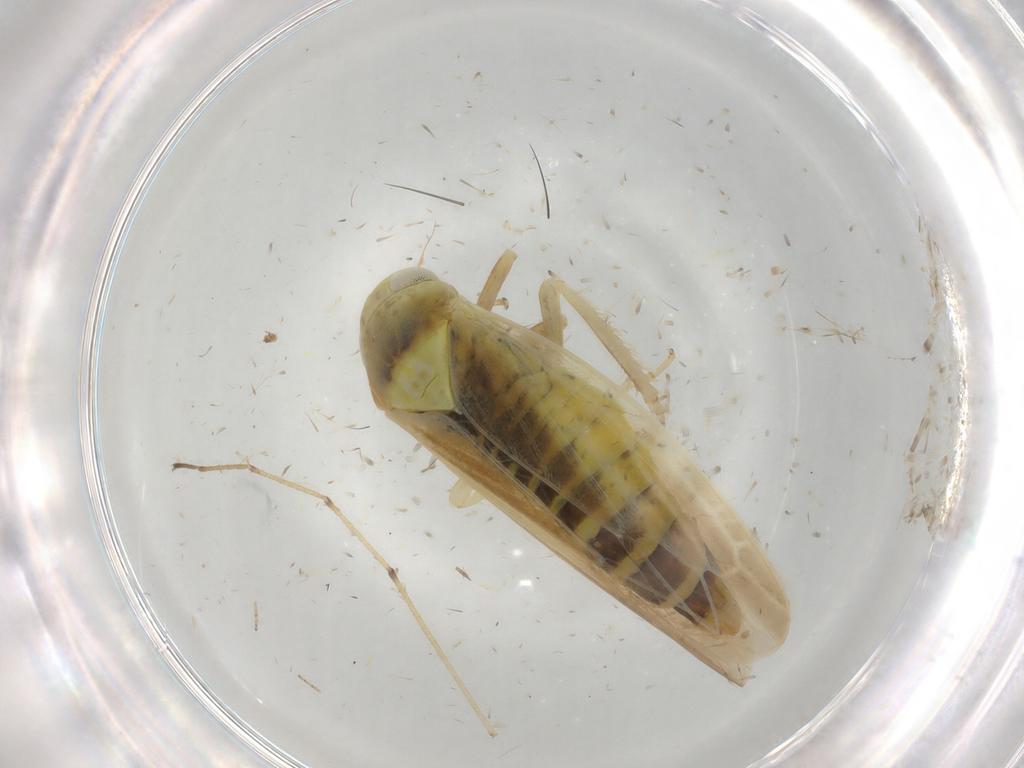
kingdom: Animalia
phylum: Arthropoda
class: Insecta
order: Hemiptera
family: Cicadellidae
